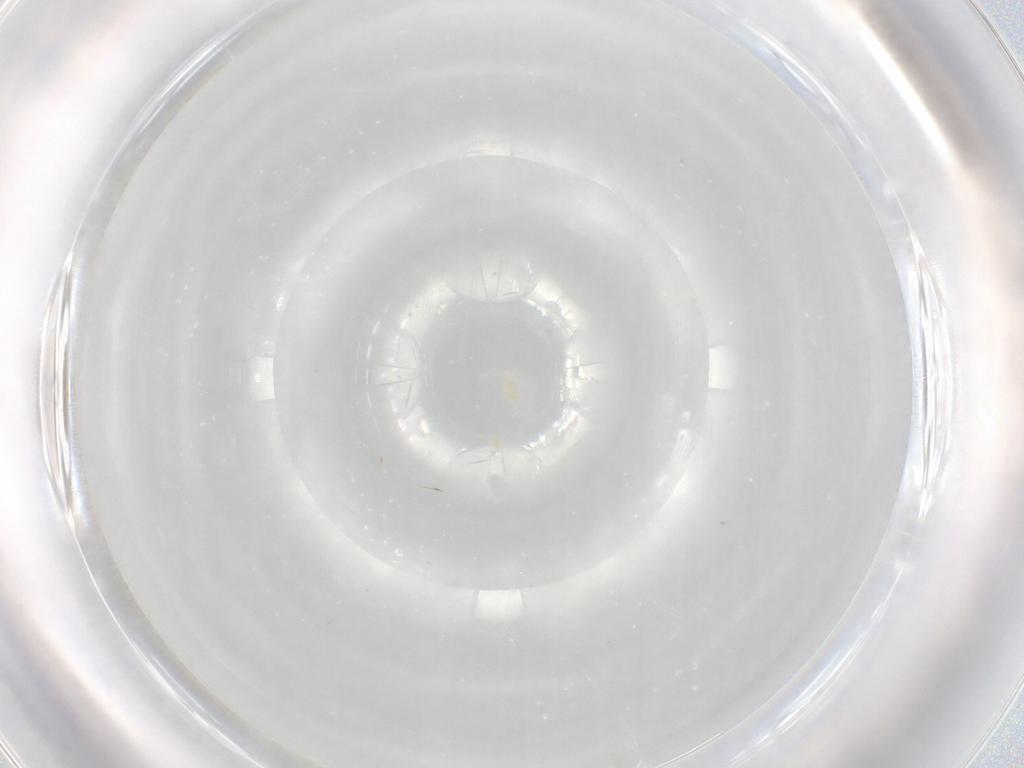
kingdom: Animalia
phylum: Arthropoda
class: Arachnida
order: Trombidiformes
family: Eupodidae
